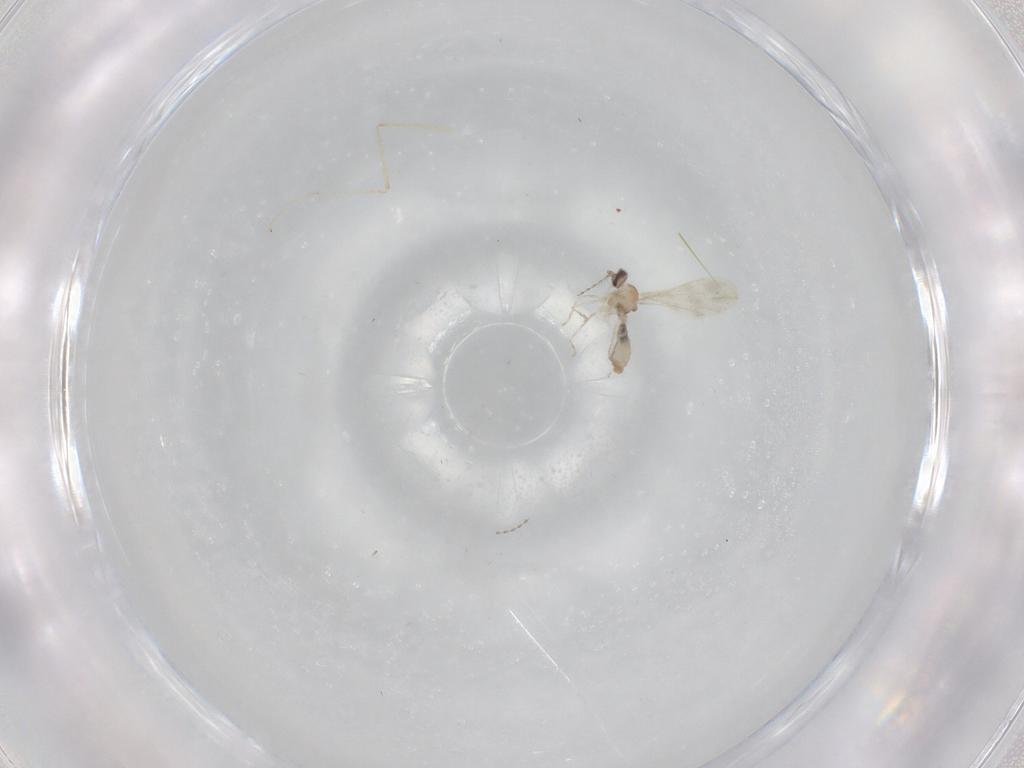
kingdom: Animalia
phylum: Arthropoda
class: Insecta
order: Diptera
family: Cecidomyiidae
